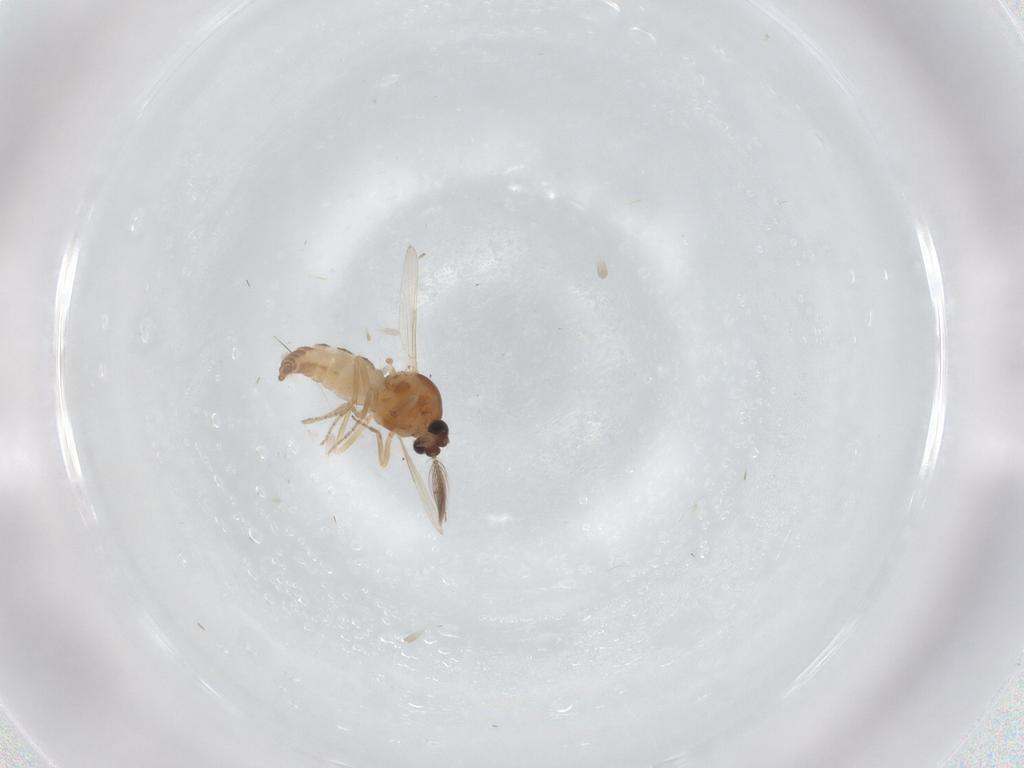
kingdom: Animalia
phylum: Arthropoda
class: Insecta
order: Diptera
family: Ceratopogonidae
